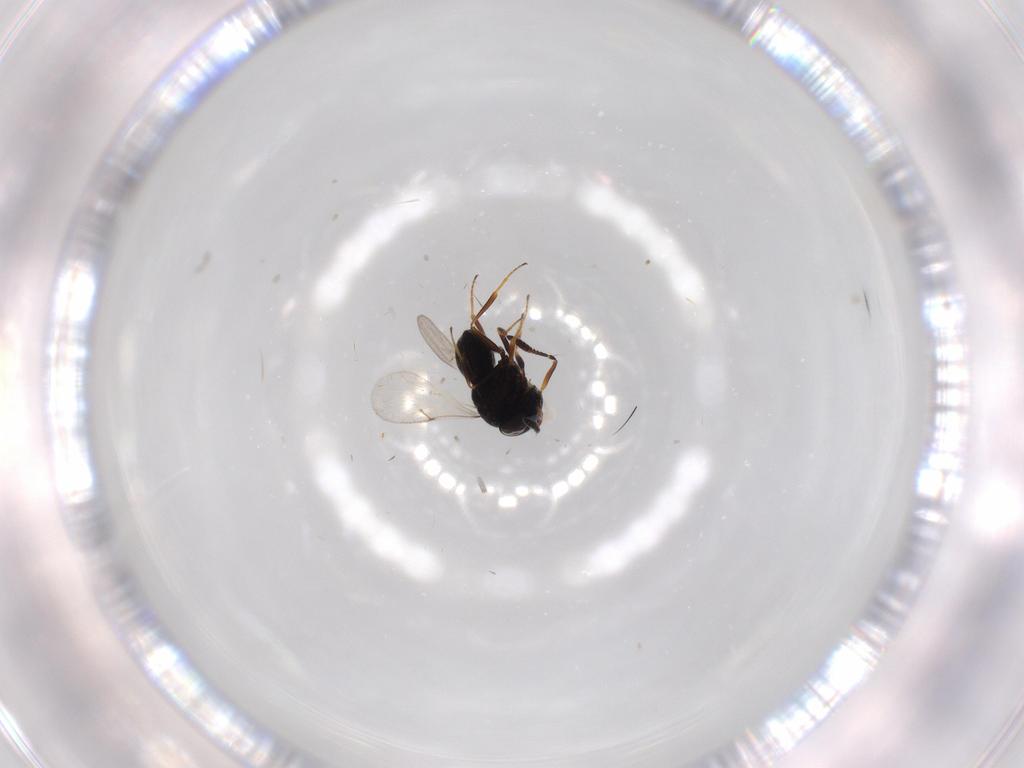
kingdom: Animalia
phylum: Arthropoda
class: Insecta
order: Hymenoptera
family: Scelionidae
